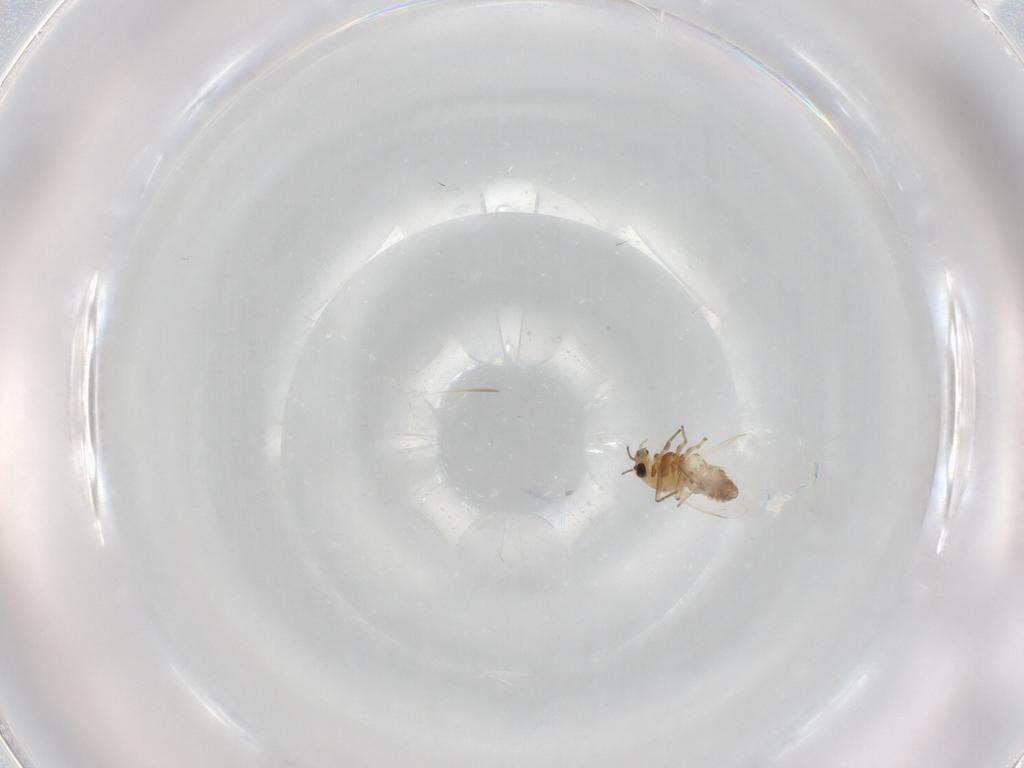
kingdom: Animalia
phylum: Arthropoda
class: Insecta
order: Diptera
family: Chironomidae
